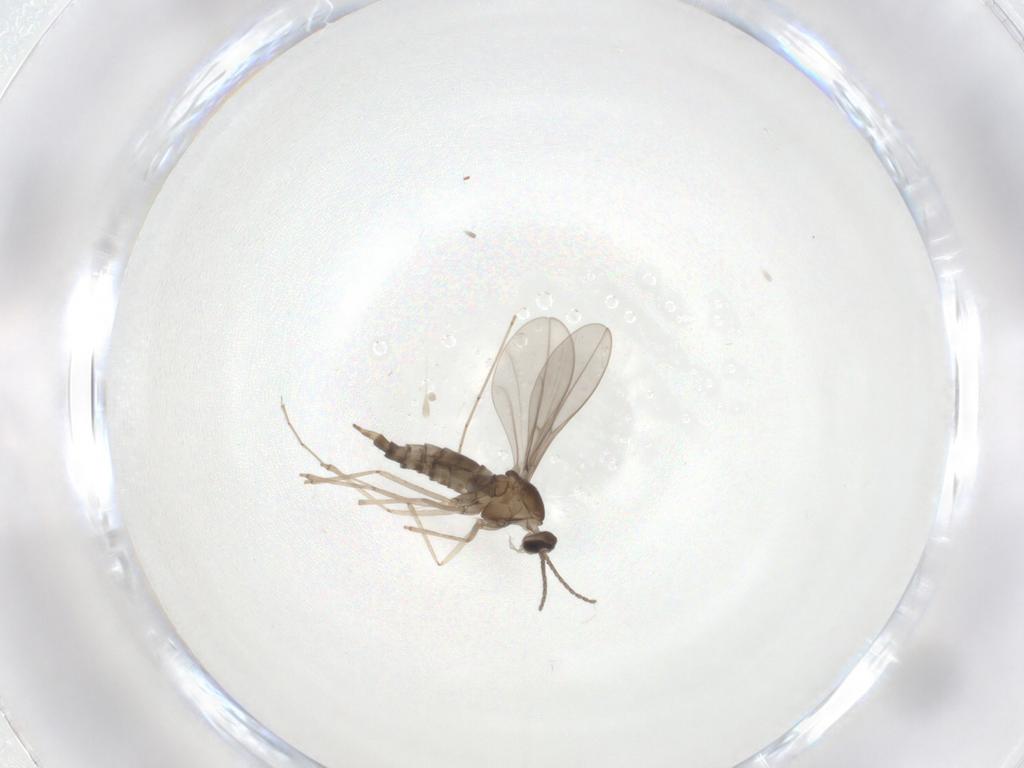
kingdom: Animalia
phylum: Arthropoda
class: Insecta
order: Diptera
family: Cecidomyiidae
